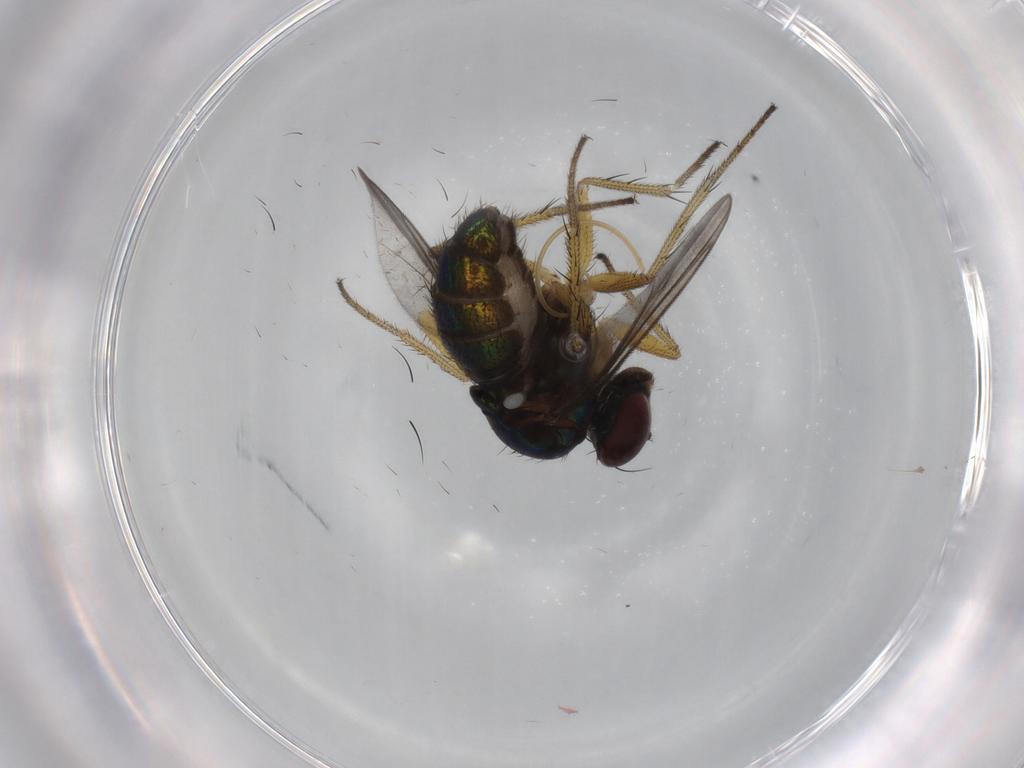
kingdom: Animalia
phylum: Arthropoda
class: Insecta
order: Diptera
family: Dolichopodidae
